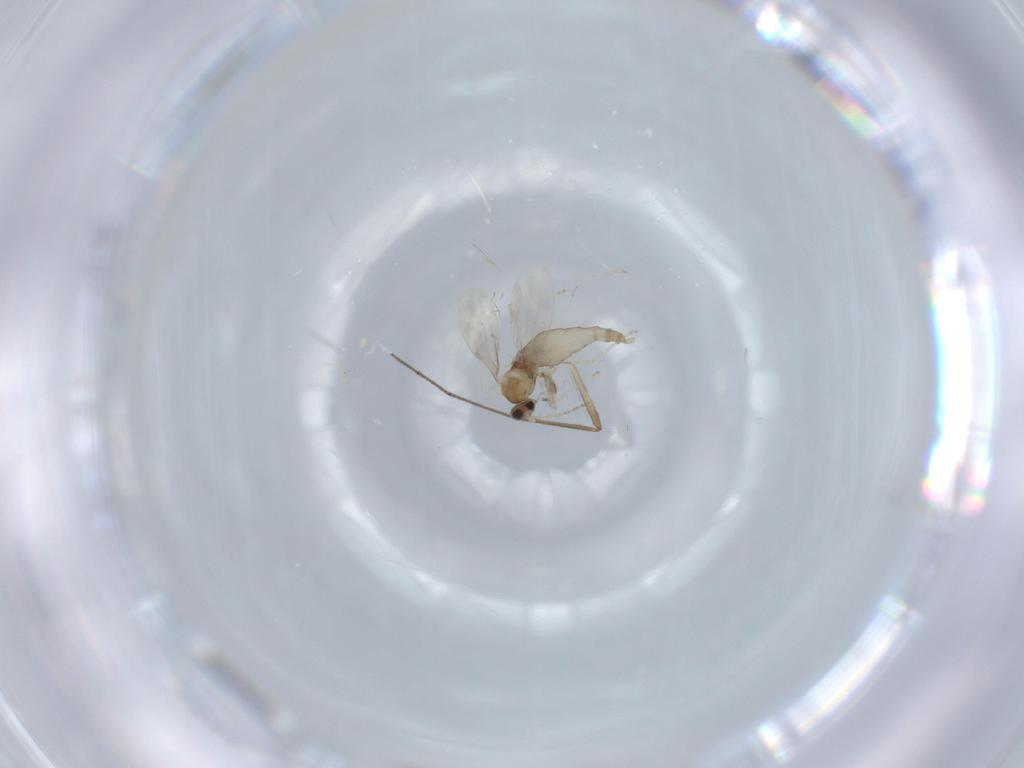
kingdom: Animalia
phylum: Arthropoda
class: Insecta
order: Diptera
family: Cecidomyiidae
